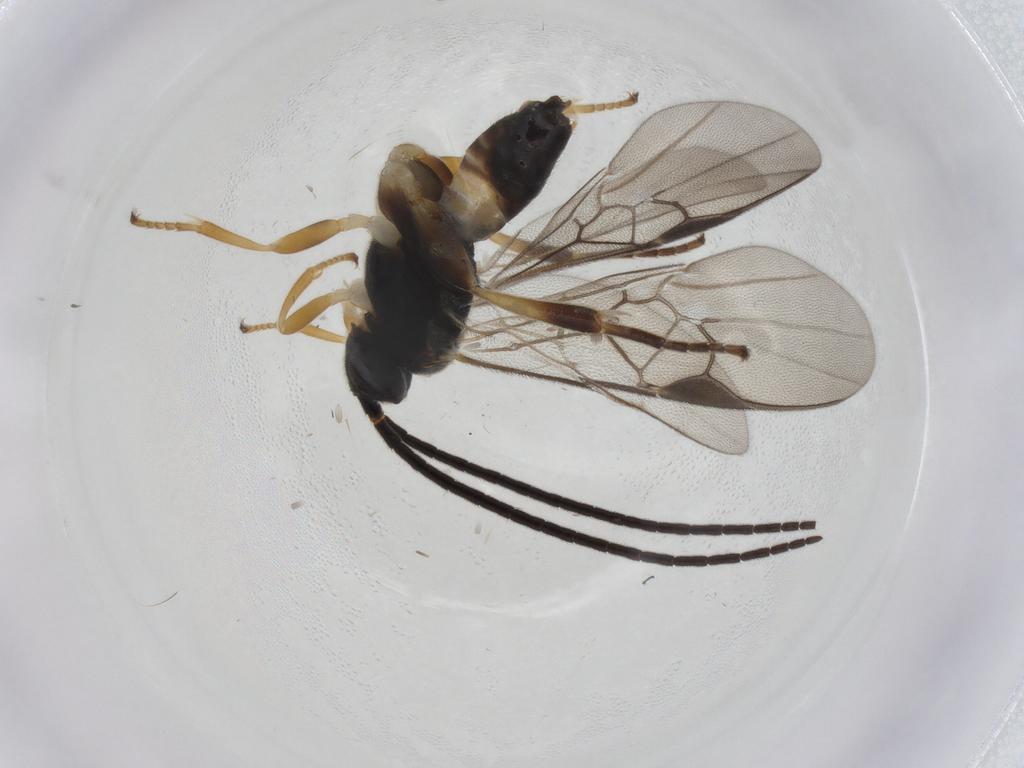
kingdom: Animalia
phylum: Arthropoda
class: Insecta
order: Hymenoptera
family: Braconidae
